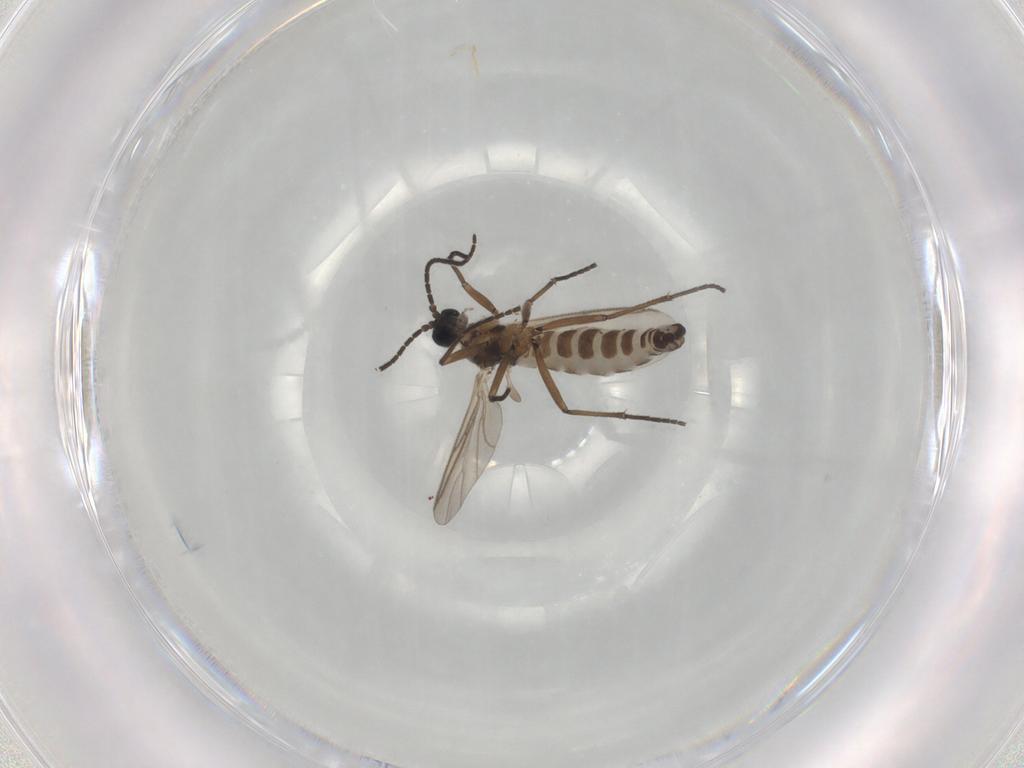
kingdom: Animalia
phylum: Arthropoda
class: Insecta
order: Diptera
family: Sciaridae
